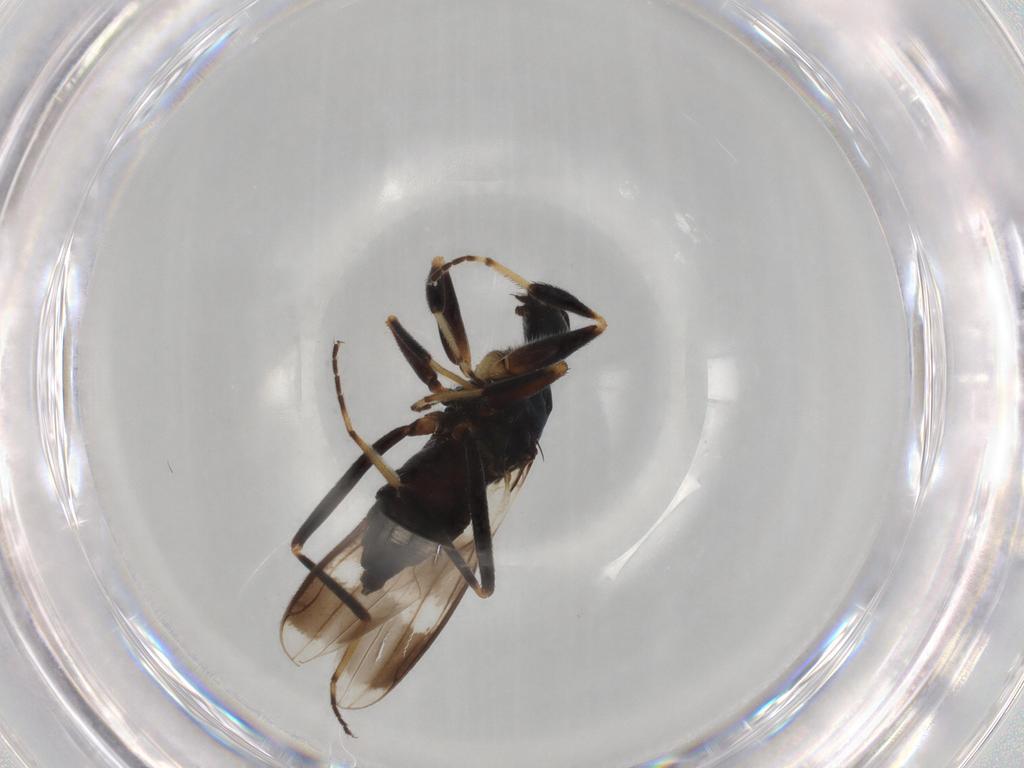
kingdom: Animalia
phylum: Arthropoda
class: Insecta
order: Diptera
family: Hybotidae
